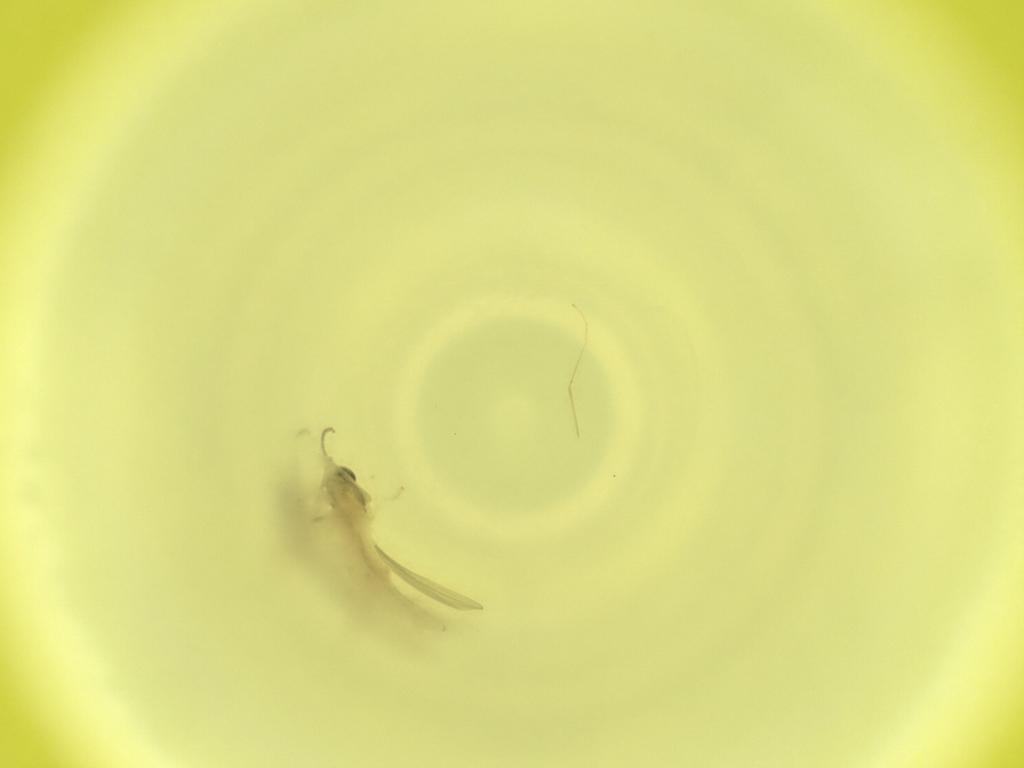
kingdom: Animalia
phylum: Arthropoda
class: Insecta
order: Diptera
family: Cecidomyiidae
